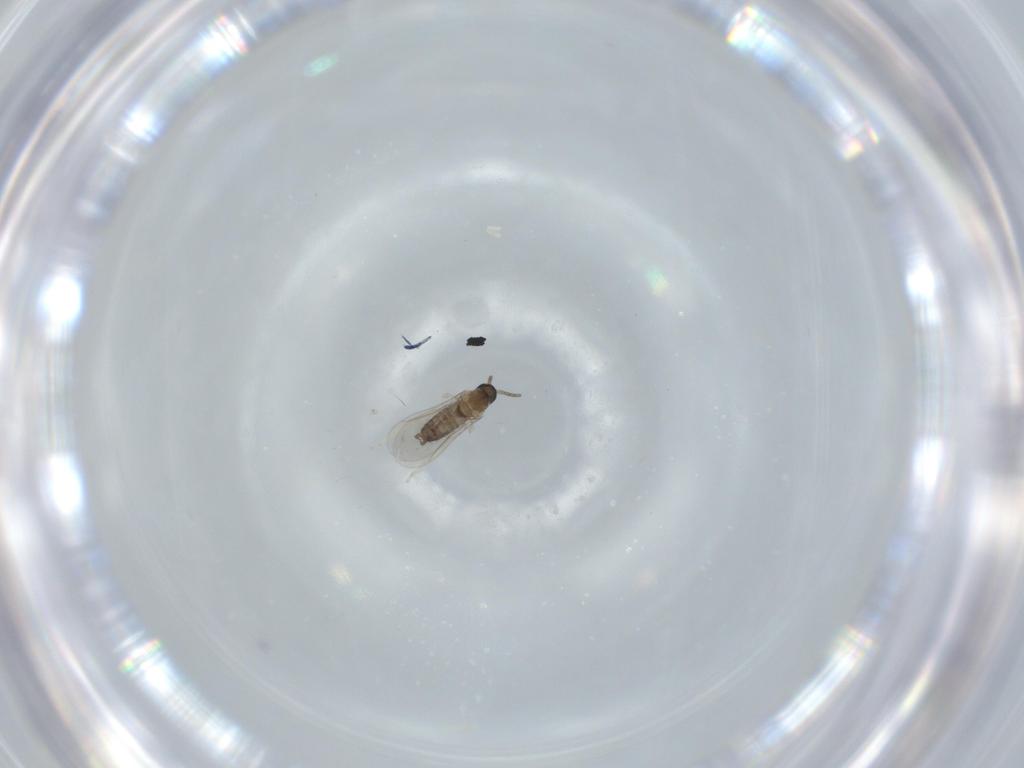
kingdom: Animalia
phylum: Arthropoda
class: Insecta
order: Diptera
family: Cecidomyiidae
